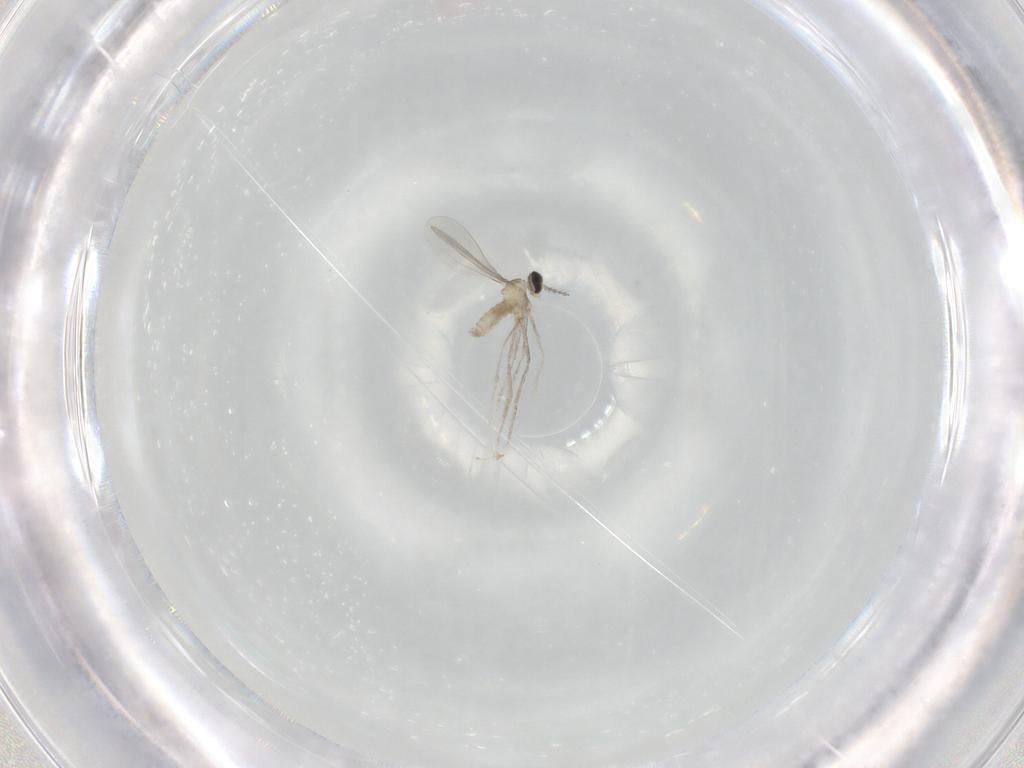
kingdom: Animalia
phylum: Arthropoda
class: Insecta
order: Diptera
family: Cecidomyiidae
